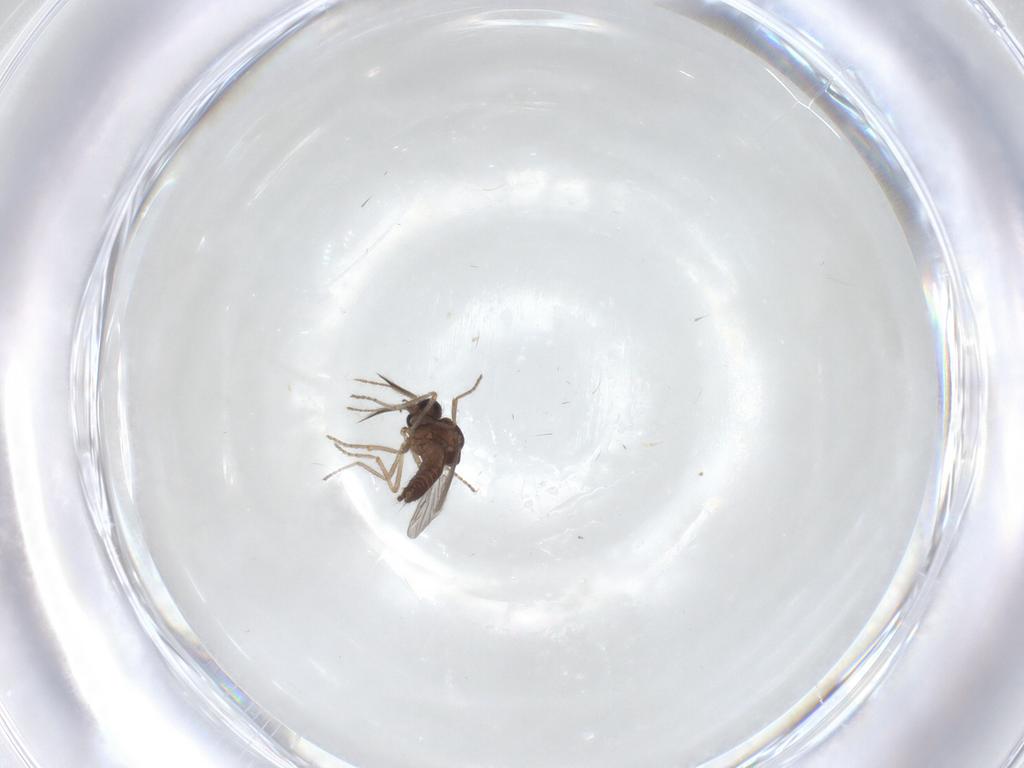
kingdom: Animalia
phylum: Arthropoda
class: Insecta
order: Diptera
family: Ceratopogonidae
